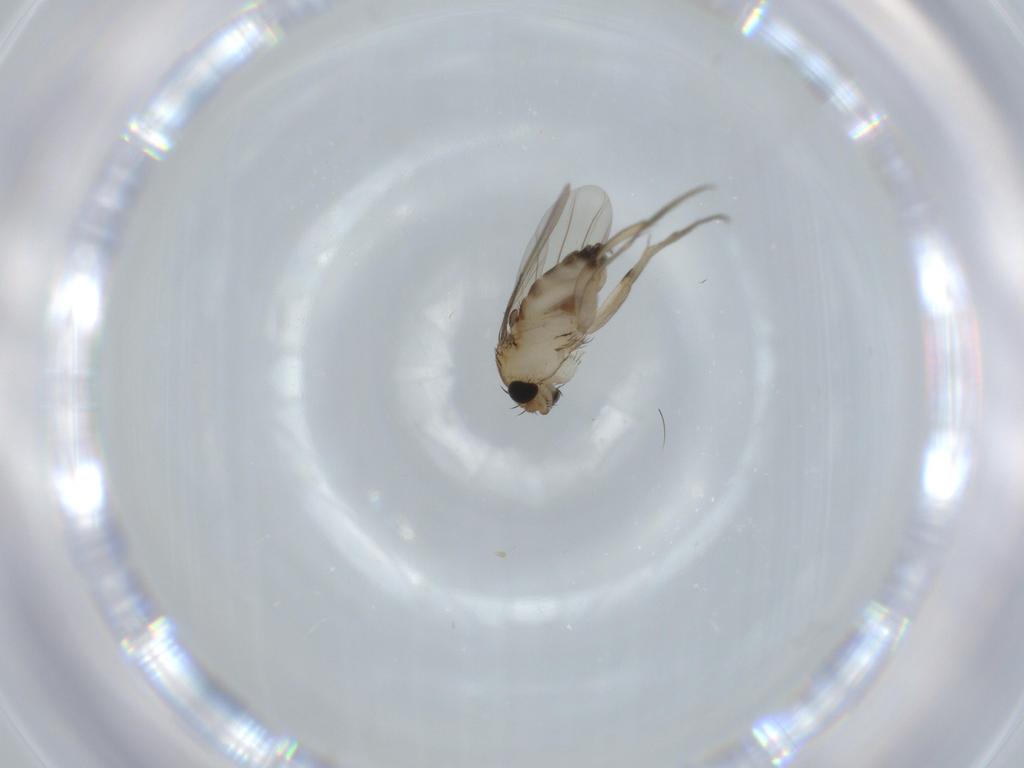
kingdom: Animalia
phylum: Arthropoda
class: Insecta
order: Diptera
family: Phoridae
